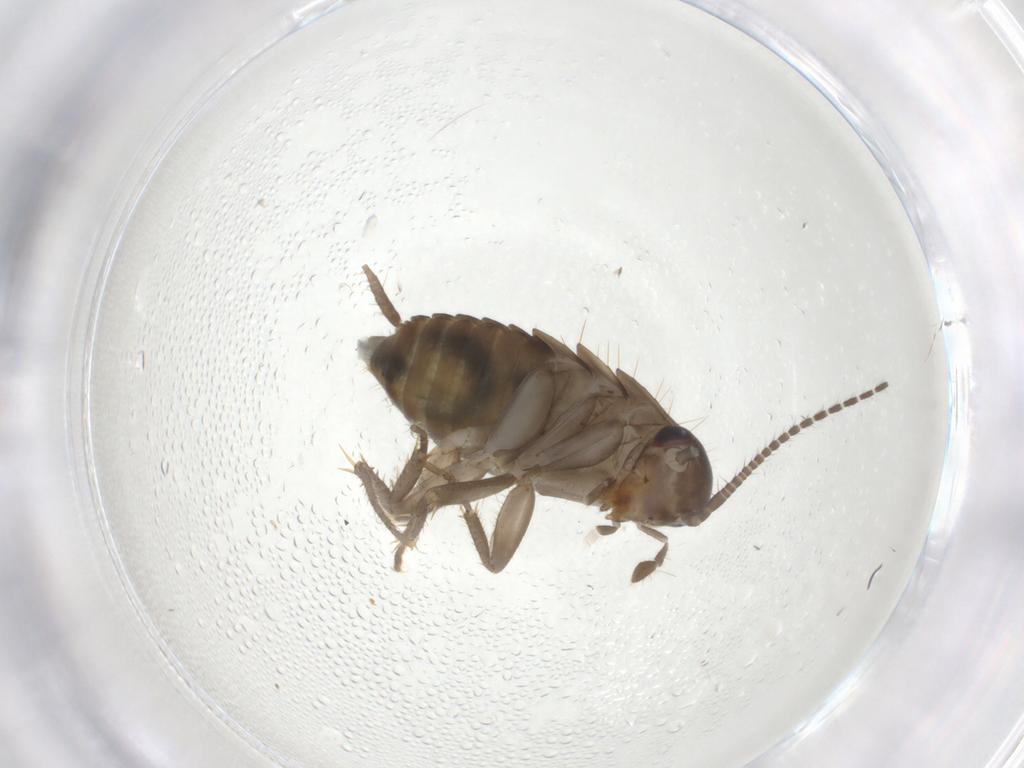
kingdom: Animalia
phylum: Arthropoda
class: Insecta
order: Blattodea
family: Ectobiidae
